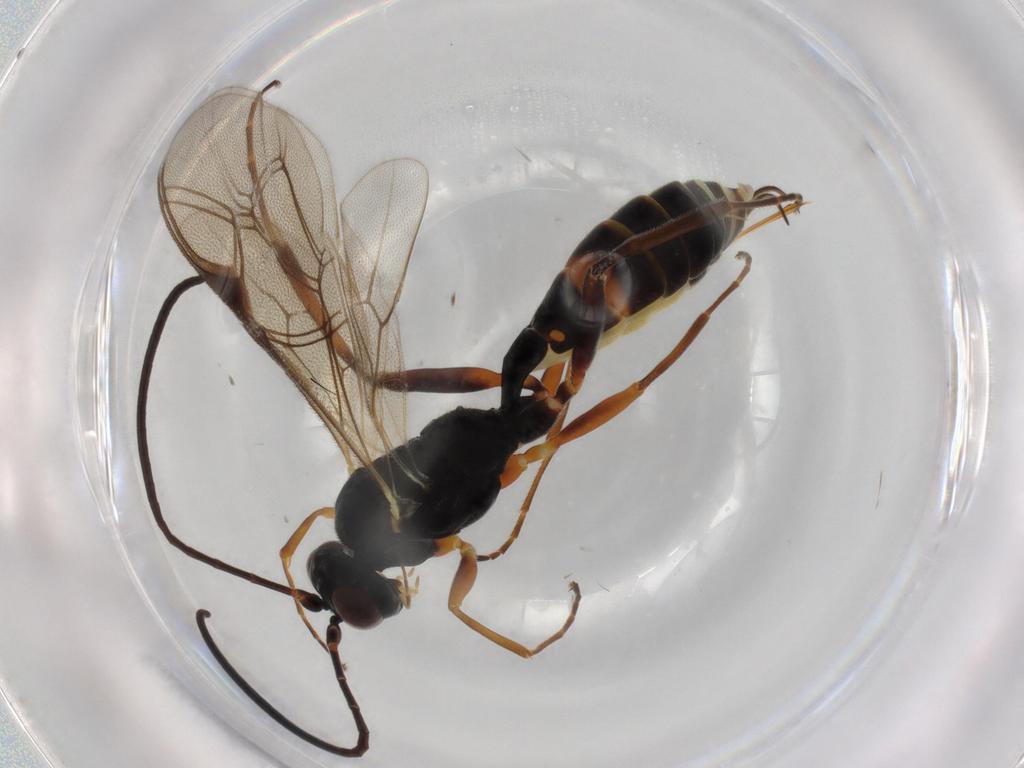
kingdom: Animalia
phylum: Arthropoda
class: Insecta
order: Hymenoptera
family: Ichneumonidae
